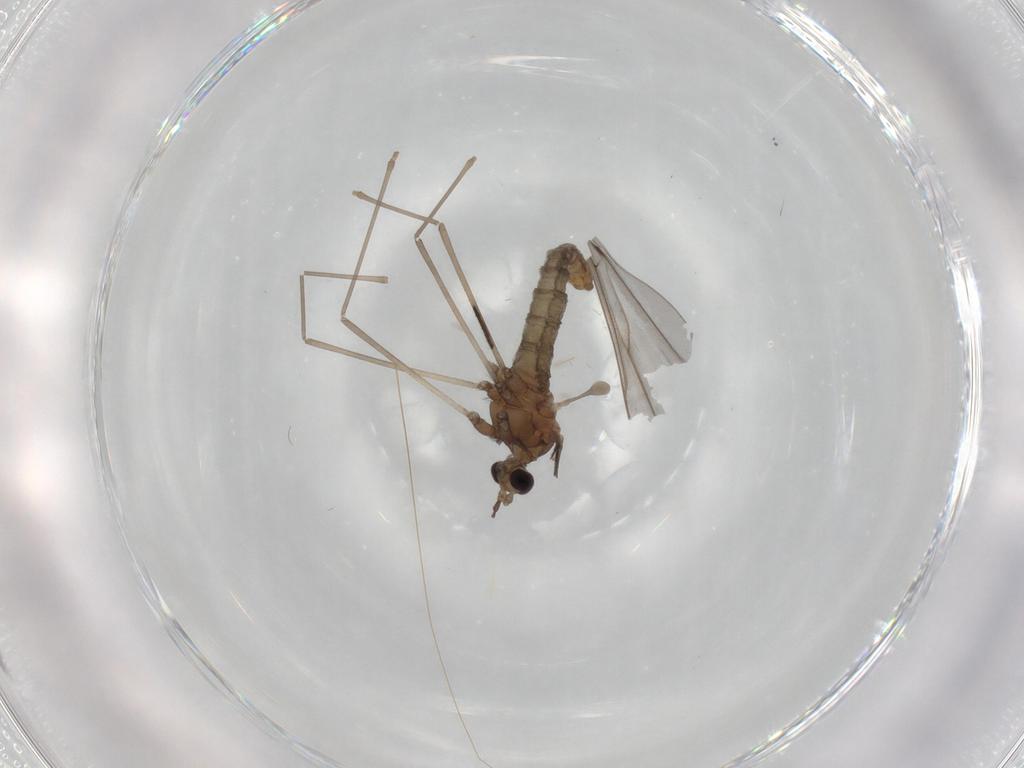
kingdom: Animalia
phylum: Arthropoda
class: Insecta
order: Diptera
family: Cecidomyiidae
